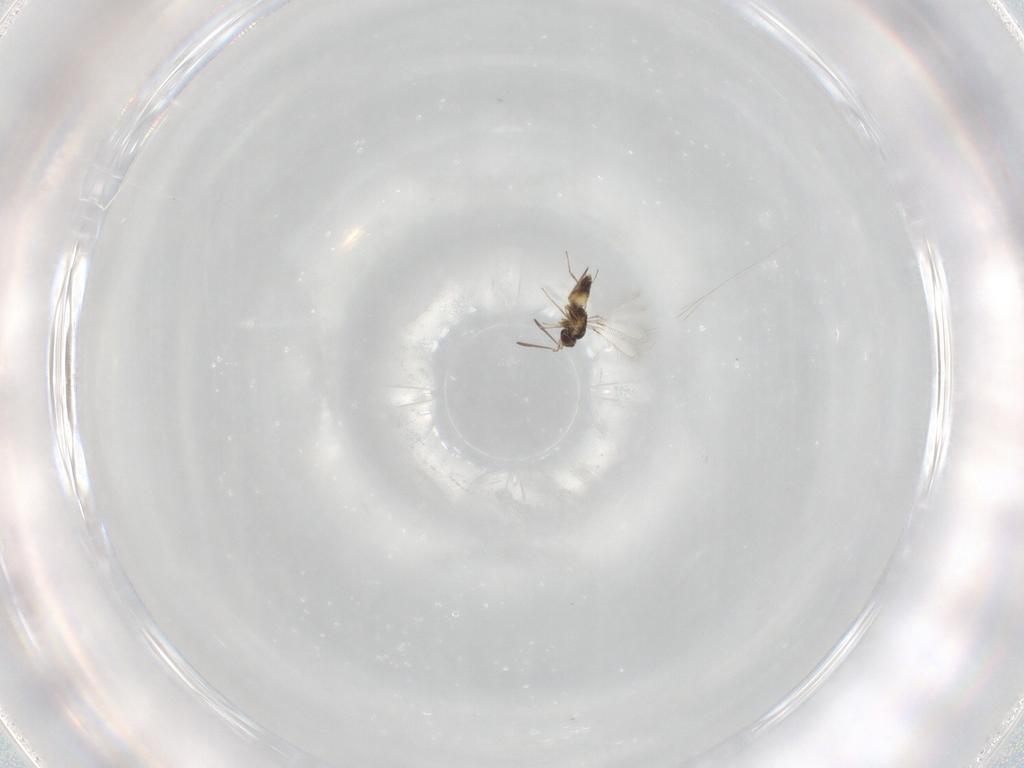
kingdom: Animalia
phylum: Arthropoda
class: Insecta
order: Hymenoptera
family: Mymaridae
